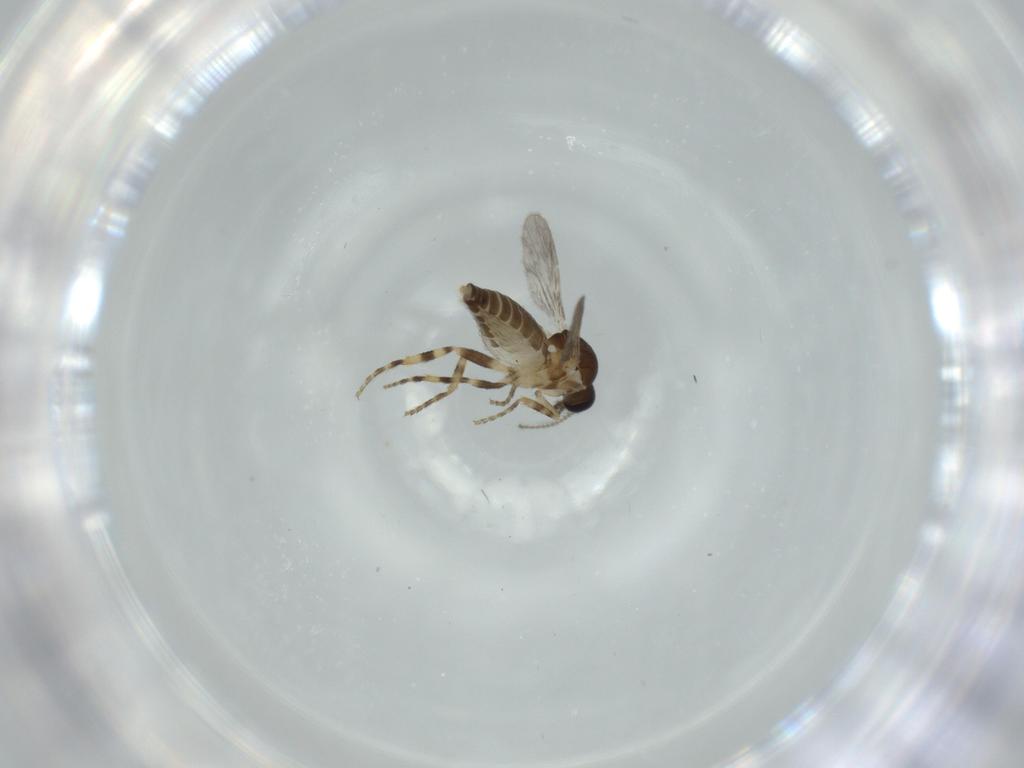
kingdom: Animalia
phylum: Arthropoda
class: Insecta
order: Diptera
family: Ceratopogonidae
